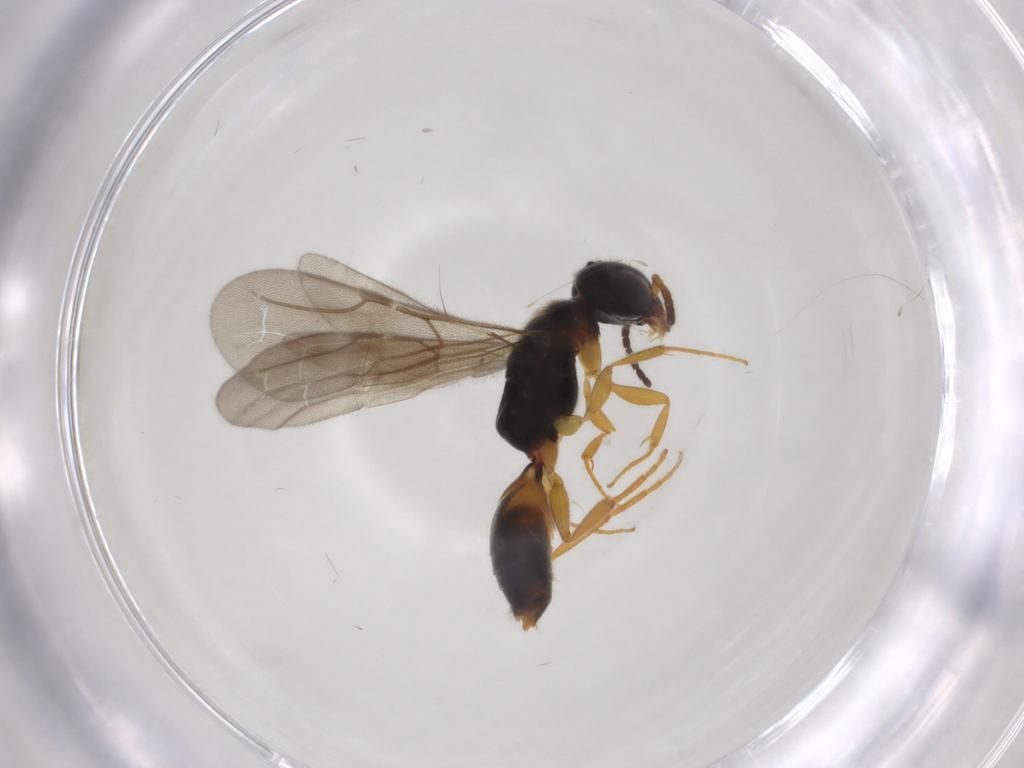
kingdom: Animalia
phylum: Arthropoda
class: Insecta
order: Hymenoptera
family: Bethylidae
